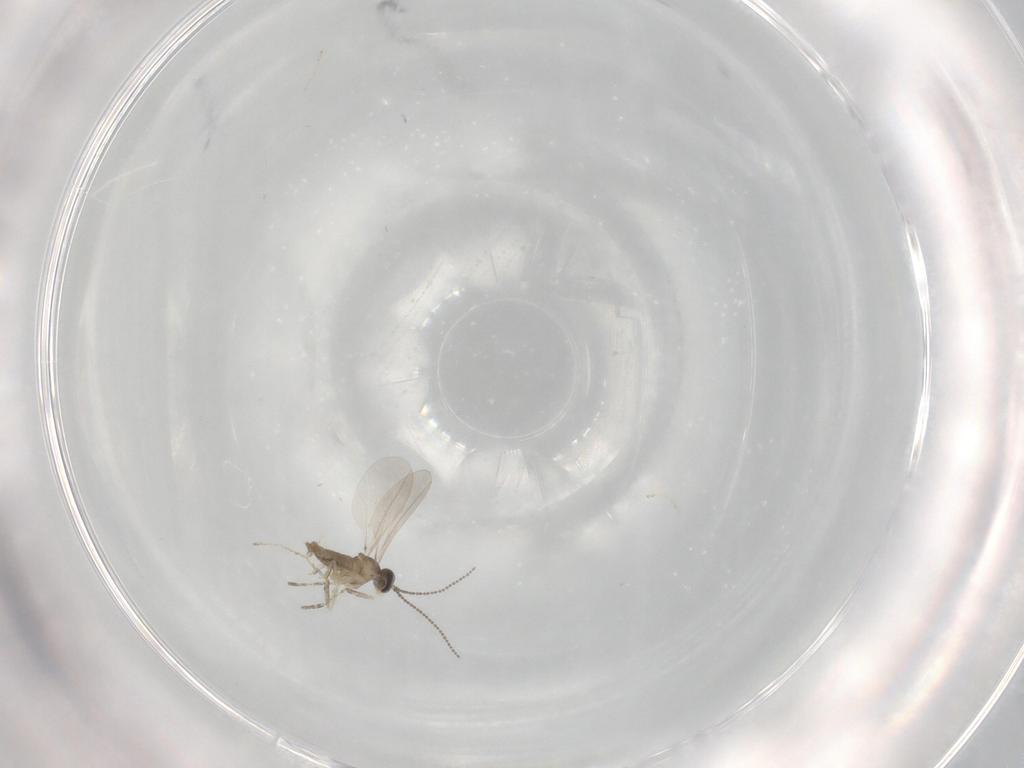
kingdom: Animalia
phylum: Arthropoda
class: Insecta
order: Diptera
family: Cecidomyiidae
